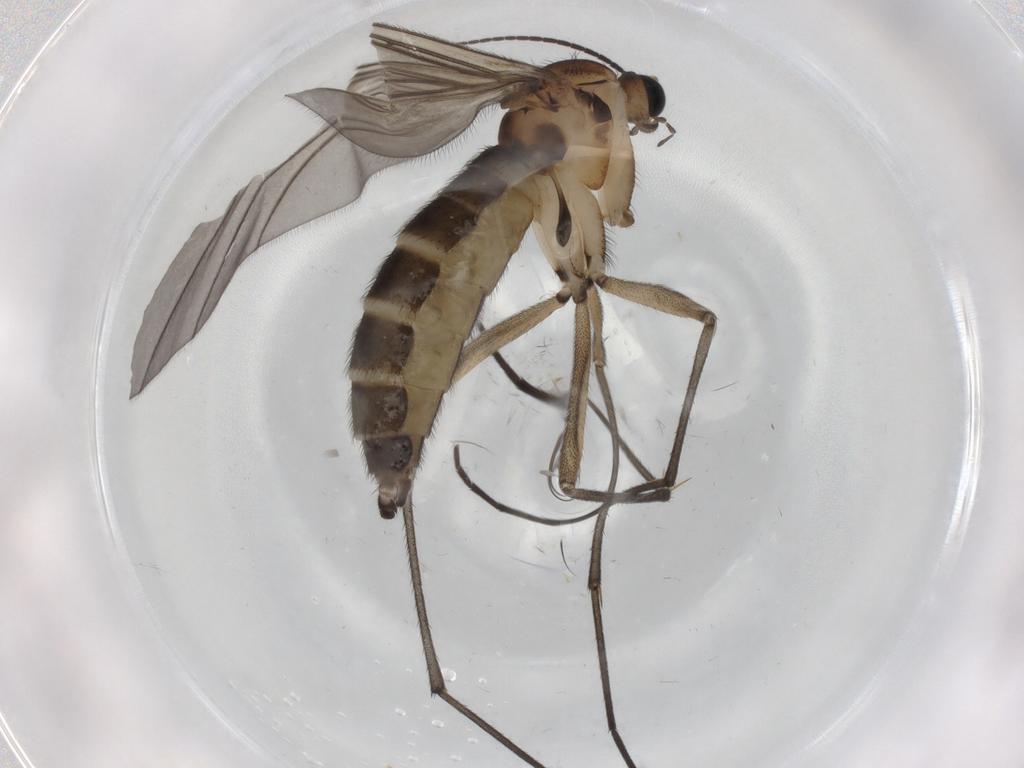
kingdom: Animalia
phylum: Arthropoda
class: Insecta
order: Diptera
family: Sciaridae
